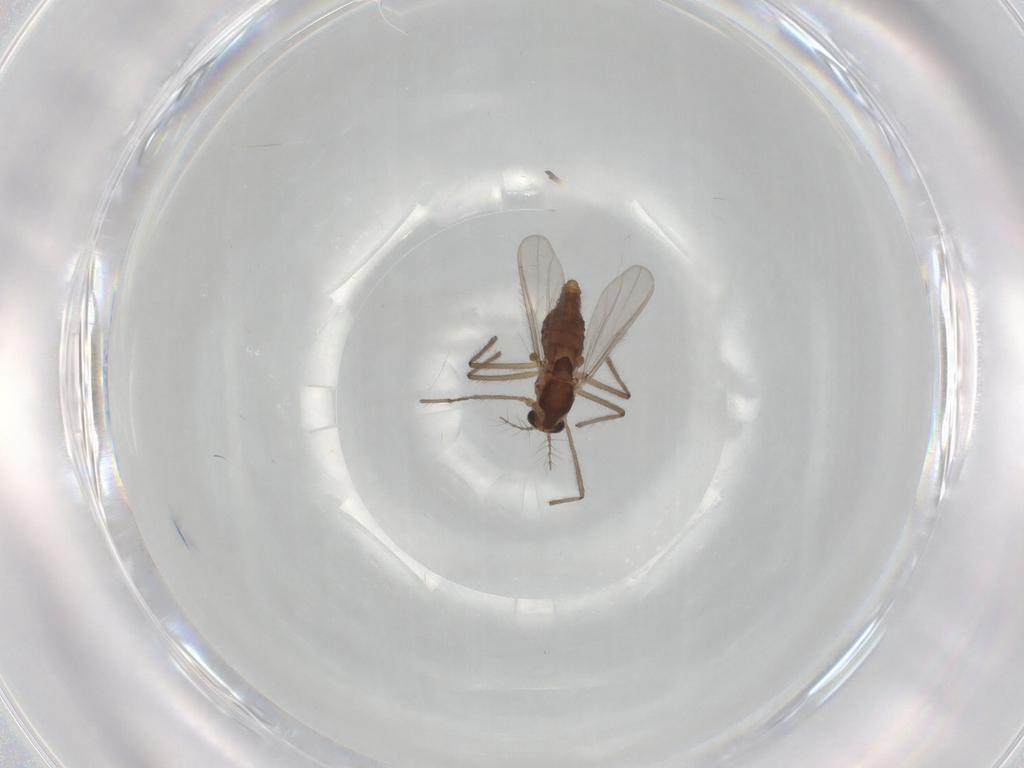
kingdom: Animalia
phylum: Arthropoda
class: Insecta
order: Diptera
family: Chironomidae
